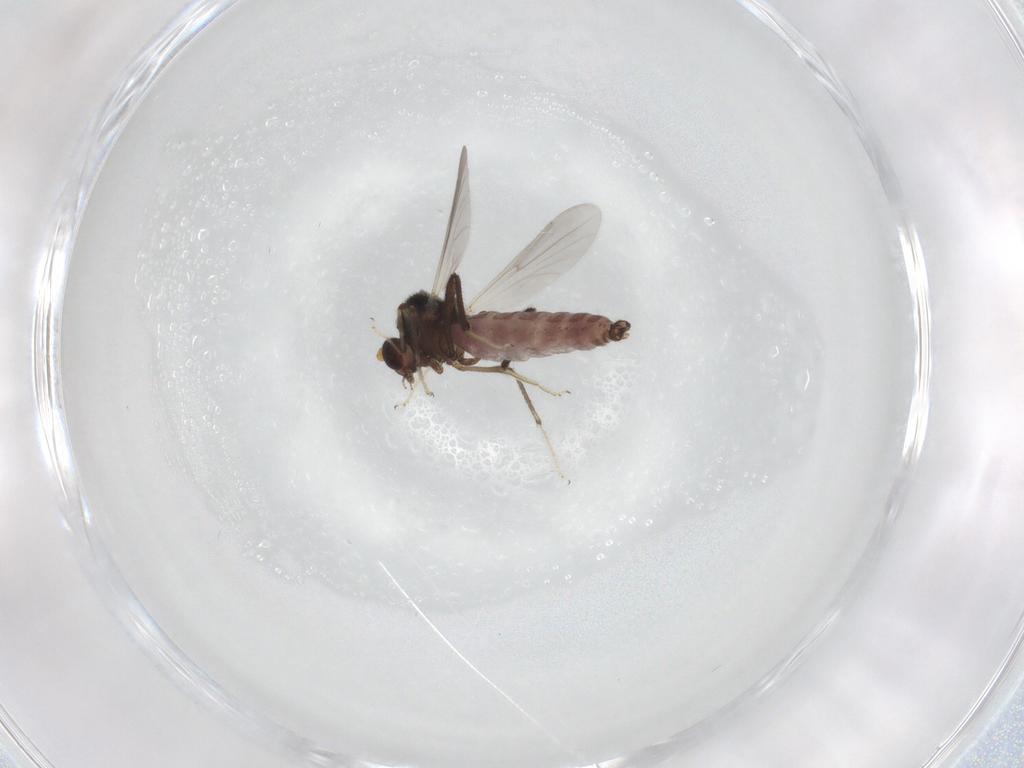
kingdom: Animalia
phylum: Arthropoda
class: Insecta
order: Diptera
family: Ceratopogonidae
